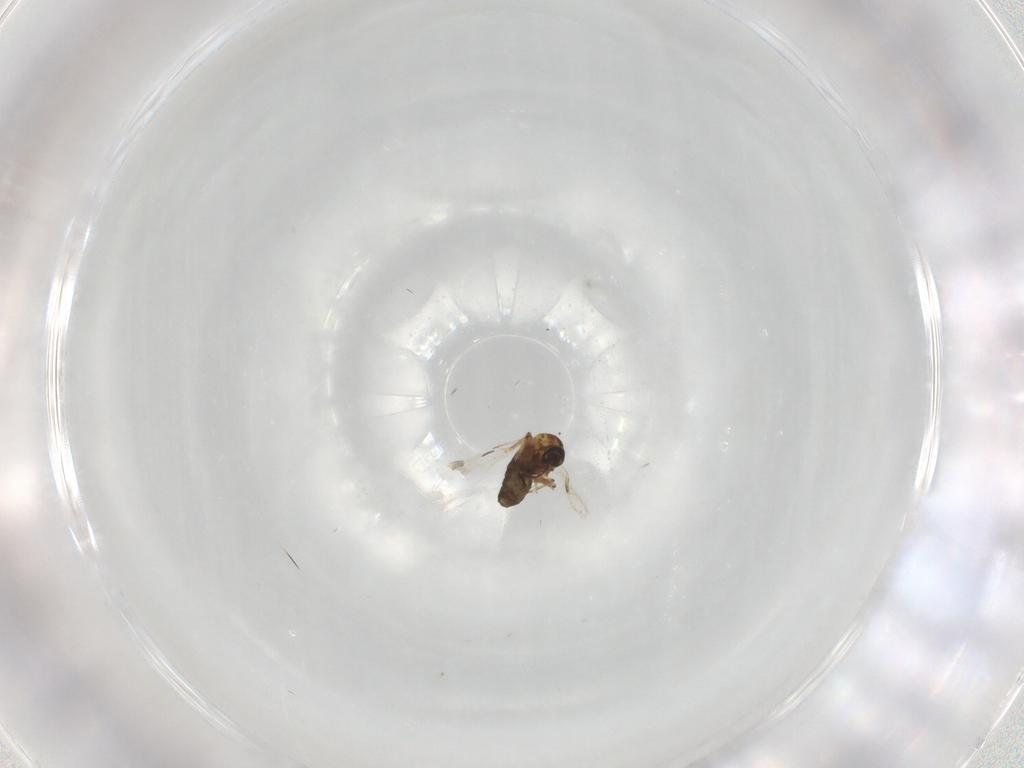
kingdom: Animalia
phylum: Arthropoda
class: Insecta
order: Diptera
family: Ceratopogonidae
